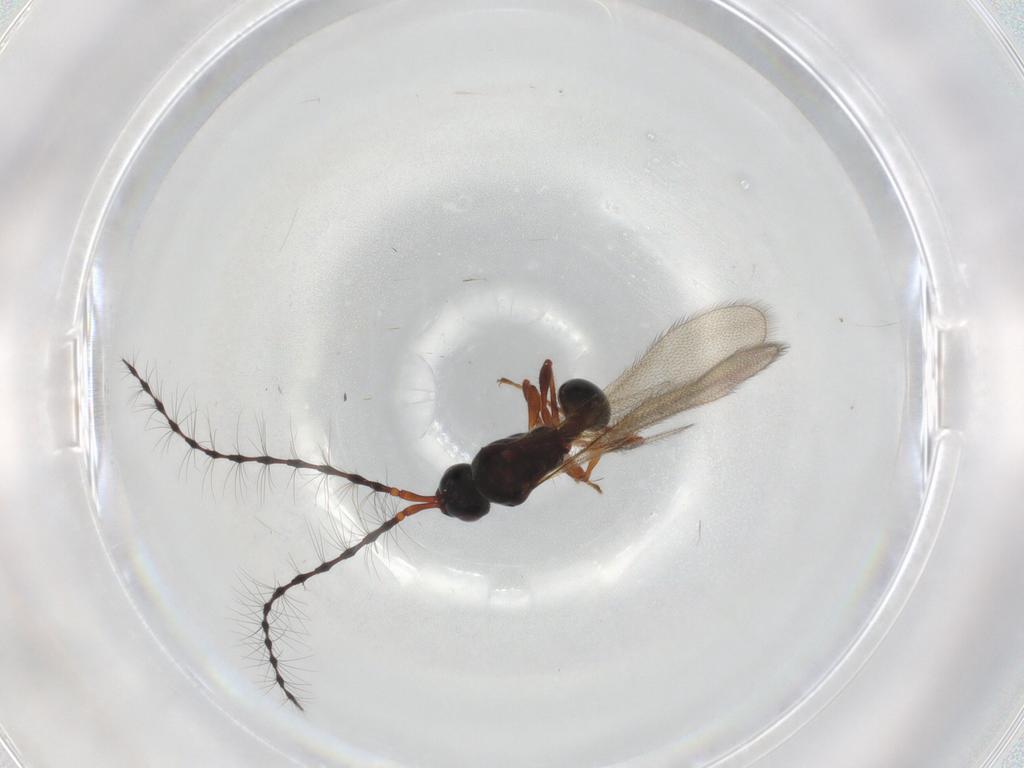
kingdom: Animalia
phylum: Arthropoda
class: Insecta
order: Hymenoptera
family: Diapriidae
